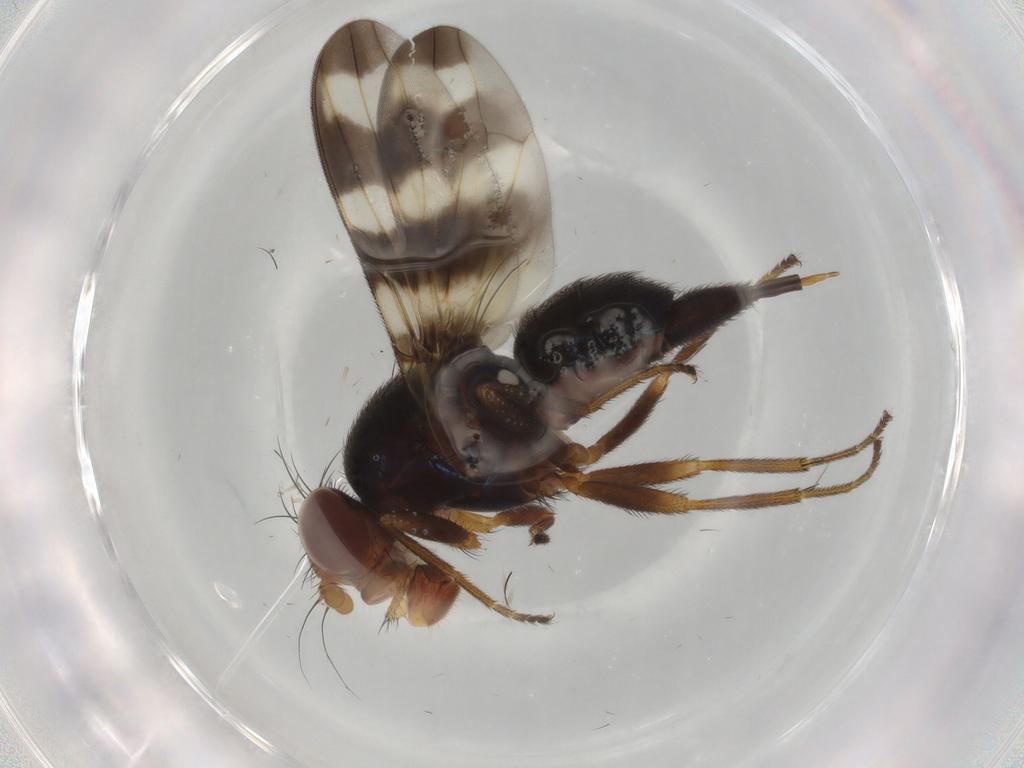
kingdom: Animalia
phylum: Arthropoda
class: Insecta
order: Diptera
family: Ulidiidae
